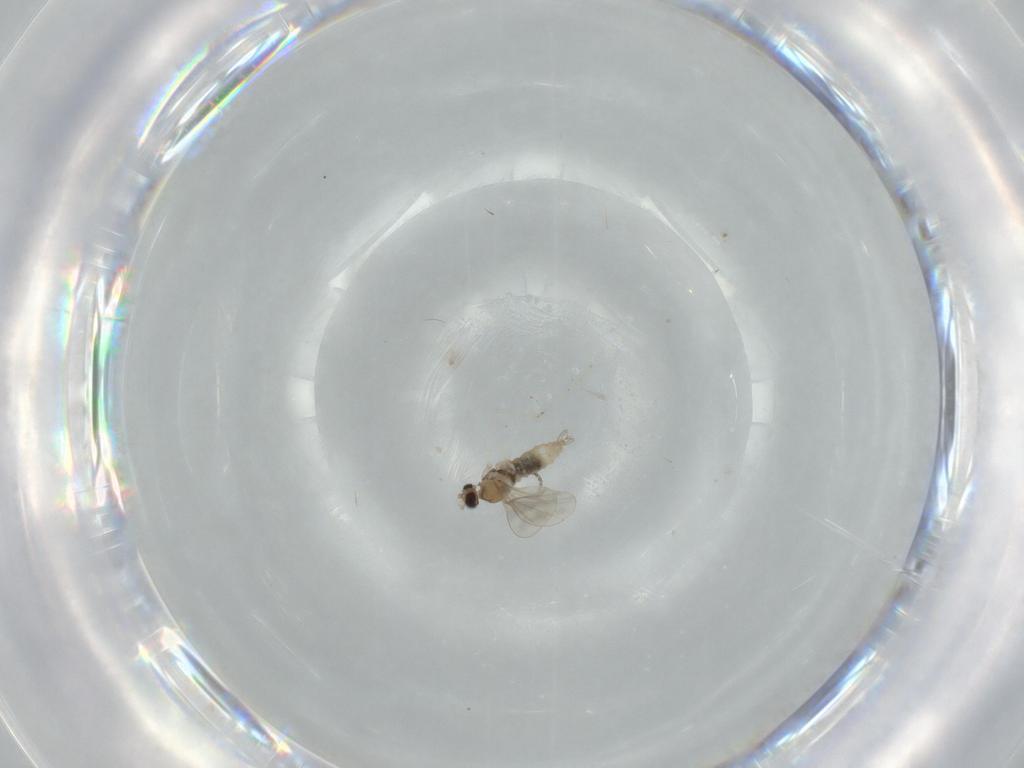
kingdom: Animalia
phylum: Arthropoda
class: Insecta
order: Diptera
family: Cecidomyiidae
